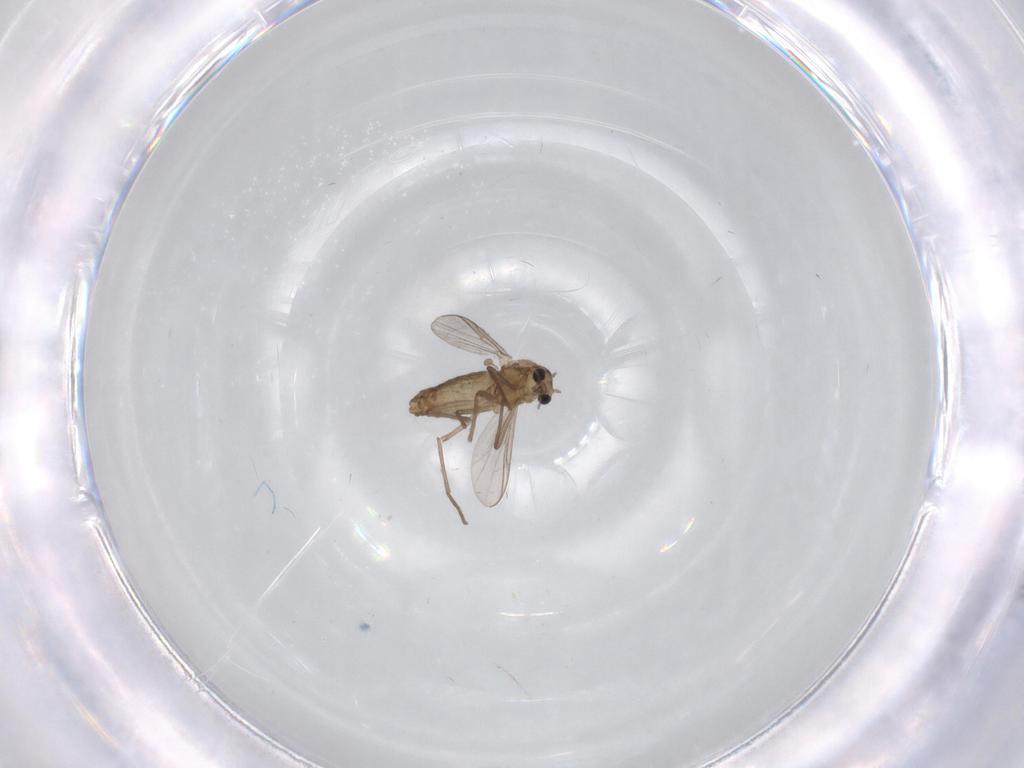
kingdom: Animalia
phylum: Arthropoda
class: Insecta
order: Diptera
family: Chironomidae
